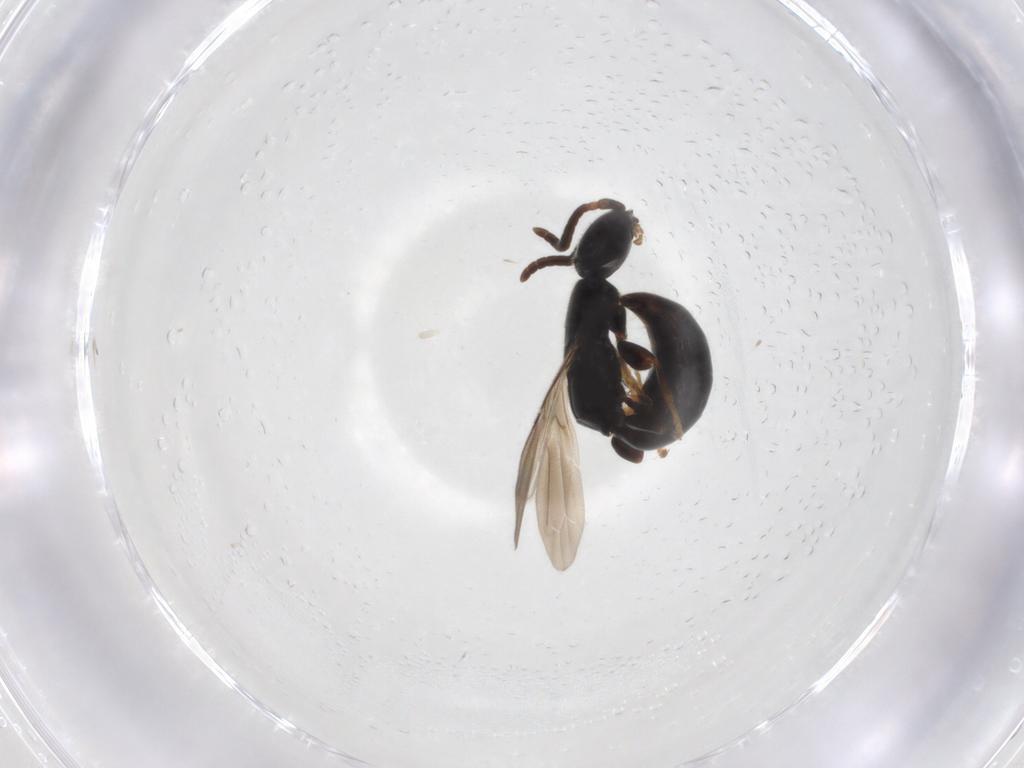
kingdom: Animalia
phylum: Arthropoda
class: Insecta
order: Hymenoptera
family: Bethylidae
